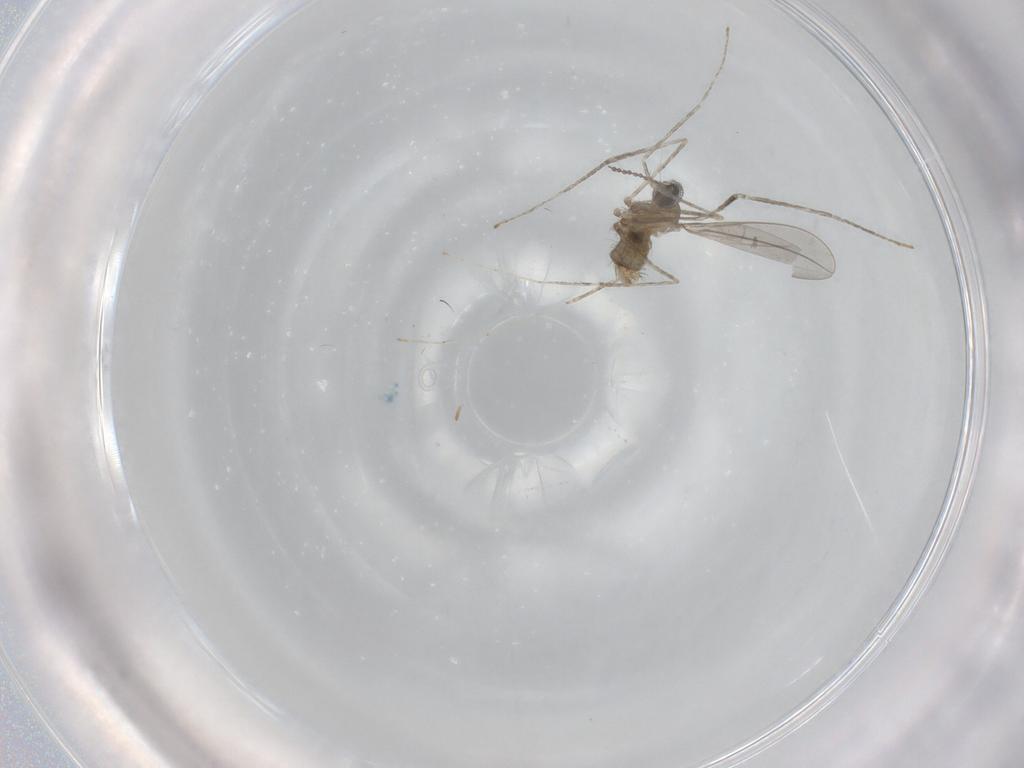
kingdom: Animalia
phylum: Arthropoda
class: Insecta
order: Diptera
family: Cecidomyiidae
